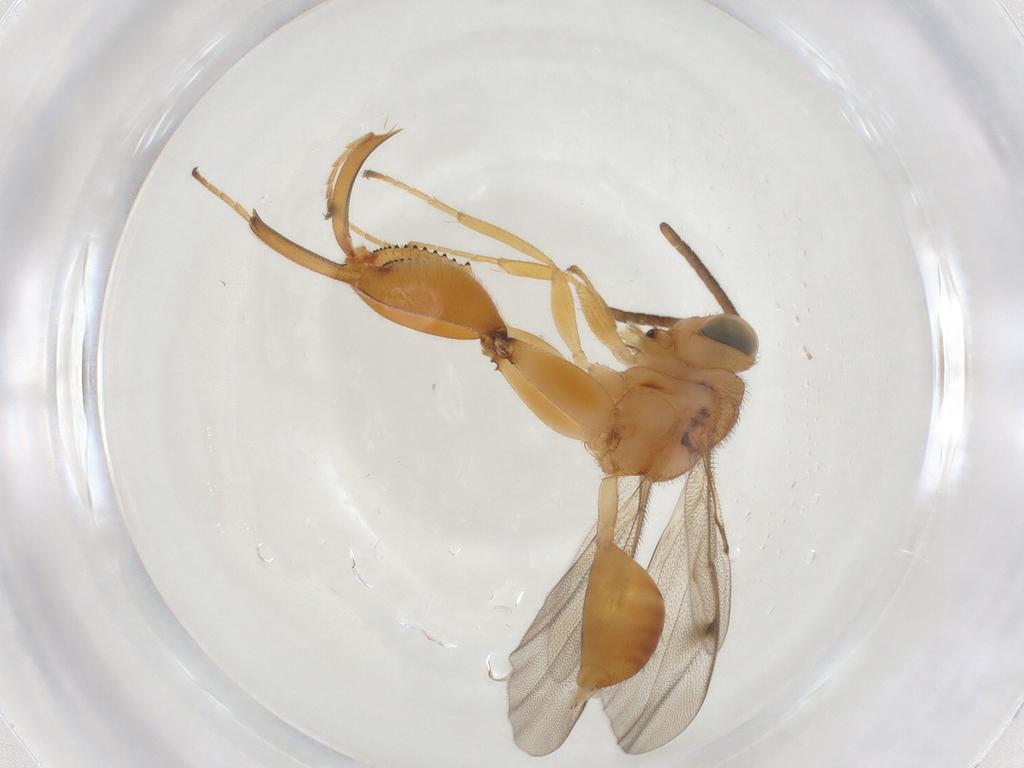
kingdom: Animalia
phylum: Arthropoda
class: Insecta
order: Hymenoptera
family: Chalcididae
